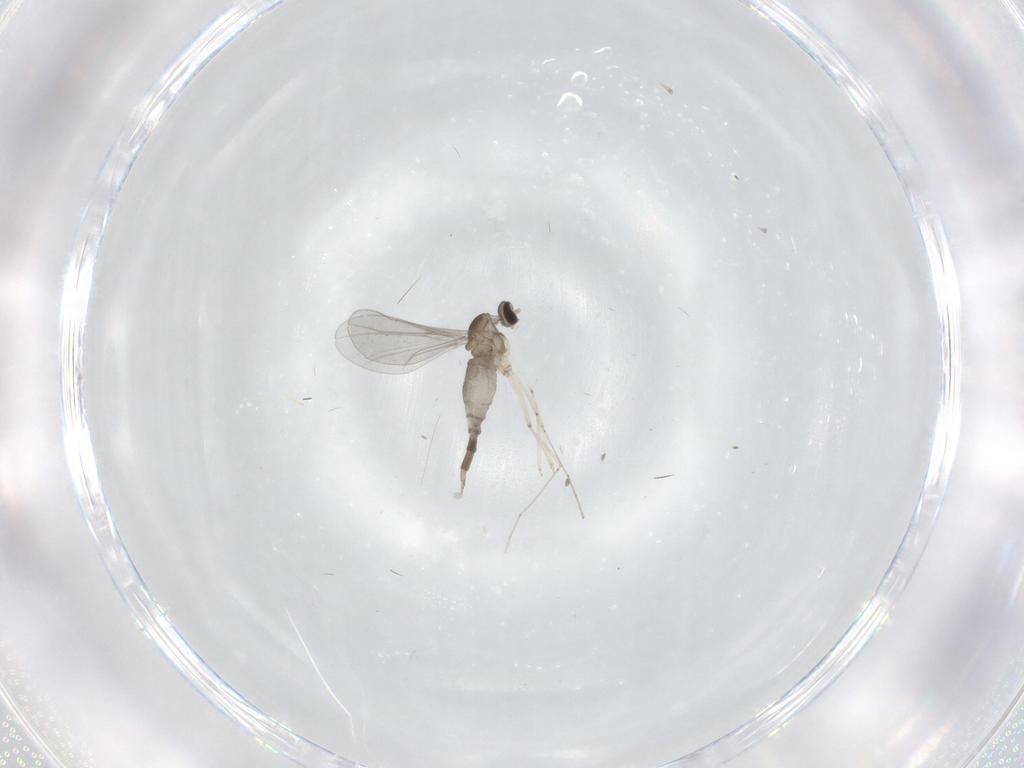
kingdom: Animalia
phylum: Arthropoda
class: Insecta
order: Diptera
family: Cecidomyiidae
